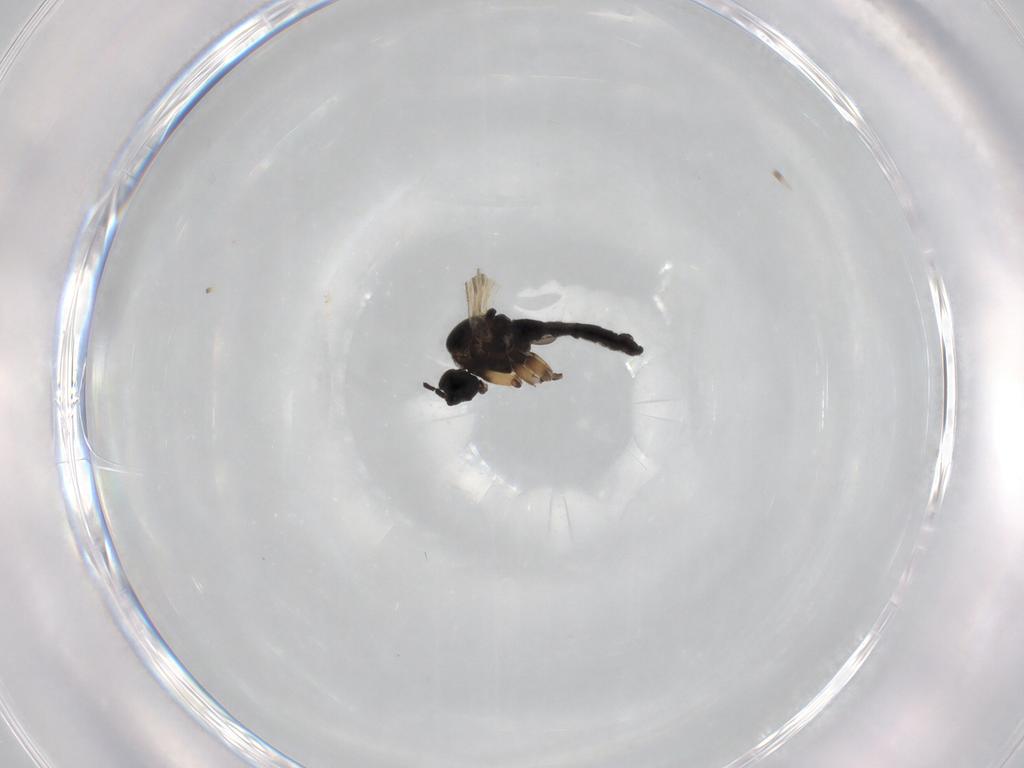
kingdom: Animalia
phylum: Arthropoda
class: Insecta
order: Diptera
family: Sciaridae
